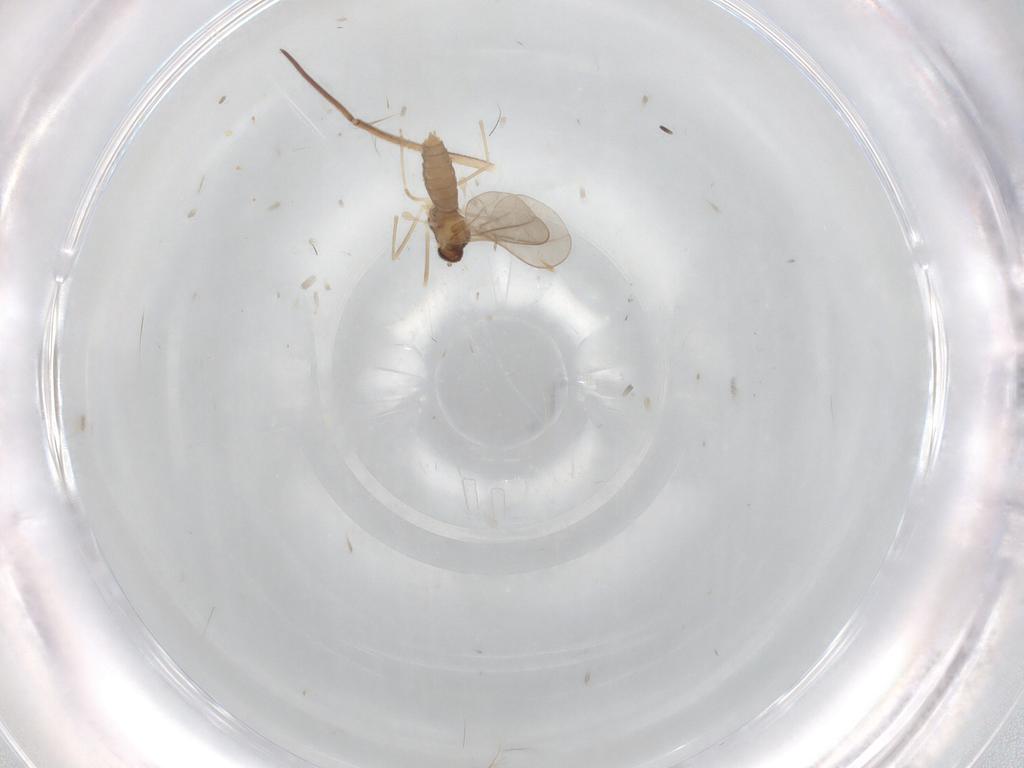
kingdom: Animalia
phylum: Arthropoda
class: Insecta
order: Diptera
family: Cecidomyiidae
